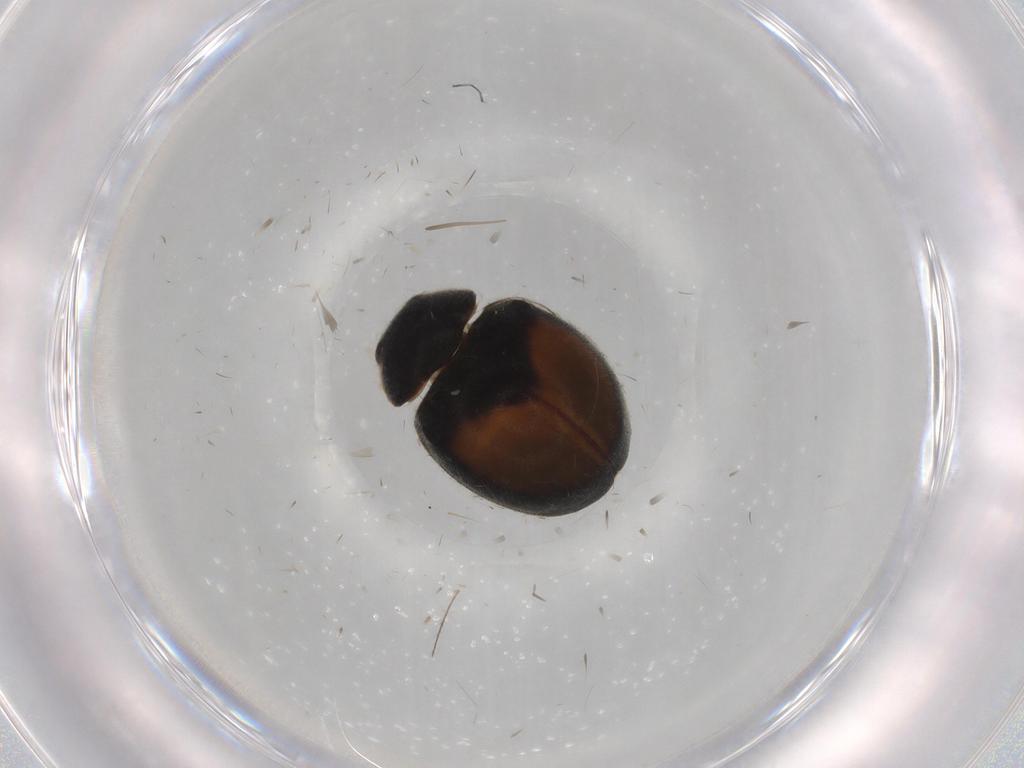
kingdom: Animalia
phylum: Arthropoda
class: Insecta
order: Coleoptera
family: Coccinellidae
